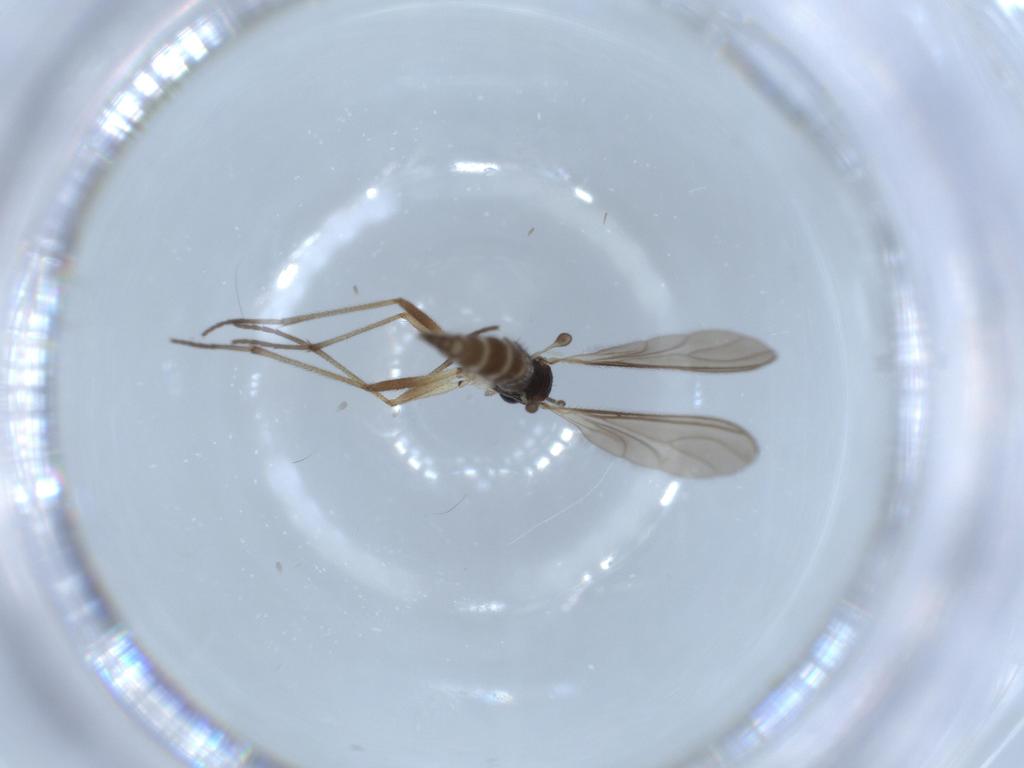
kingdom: Animalia
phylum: Arthropoda
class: Insecta
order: Diptera
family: Sciaridae
